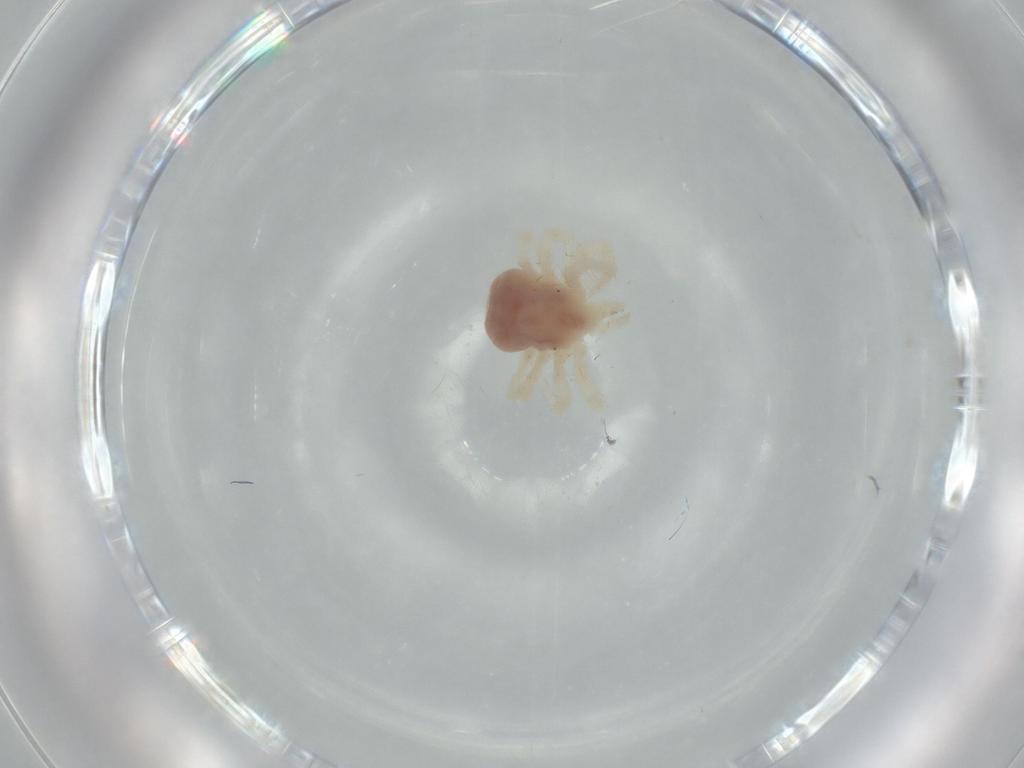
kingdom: Animalia
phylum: Arthropoda
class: Arachnida
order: Trombidiformes
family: Anystidae
